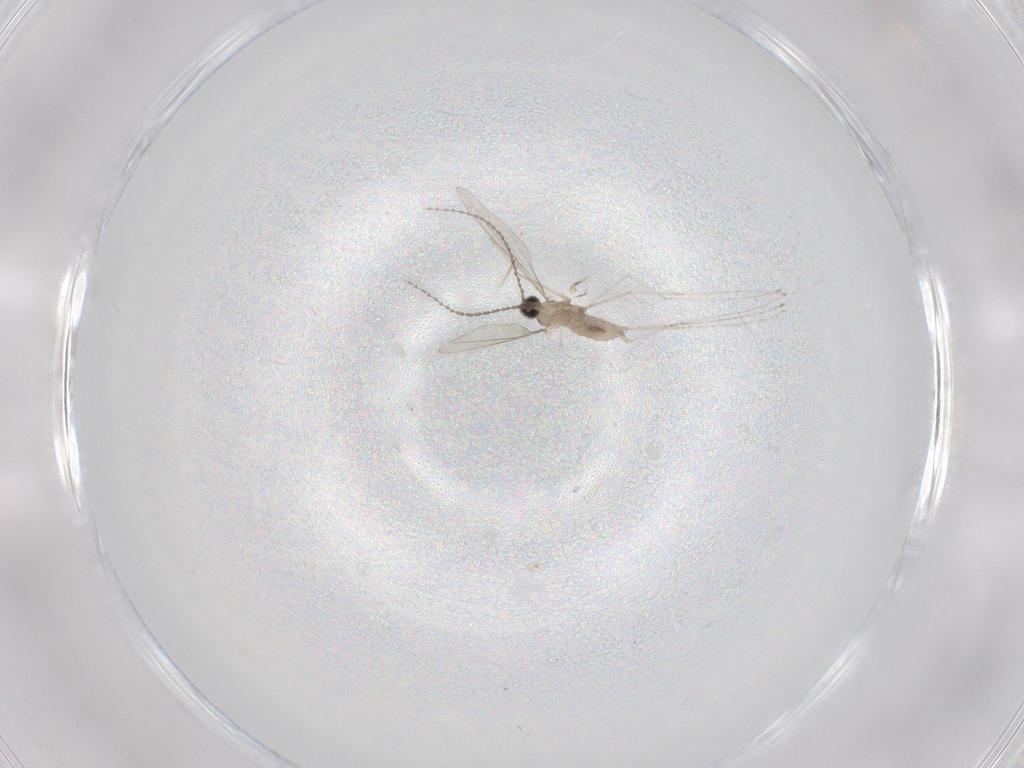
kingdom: Animalia
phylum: Arthropoda
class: Insecta
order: Diptera
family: Cecidomyiidae
